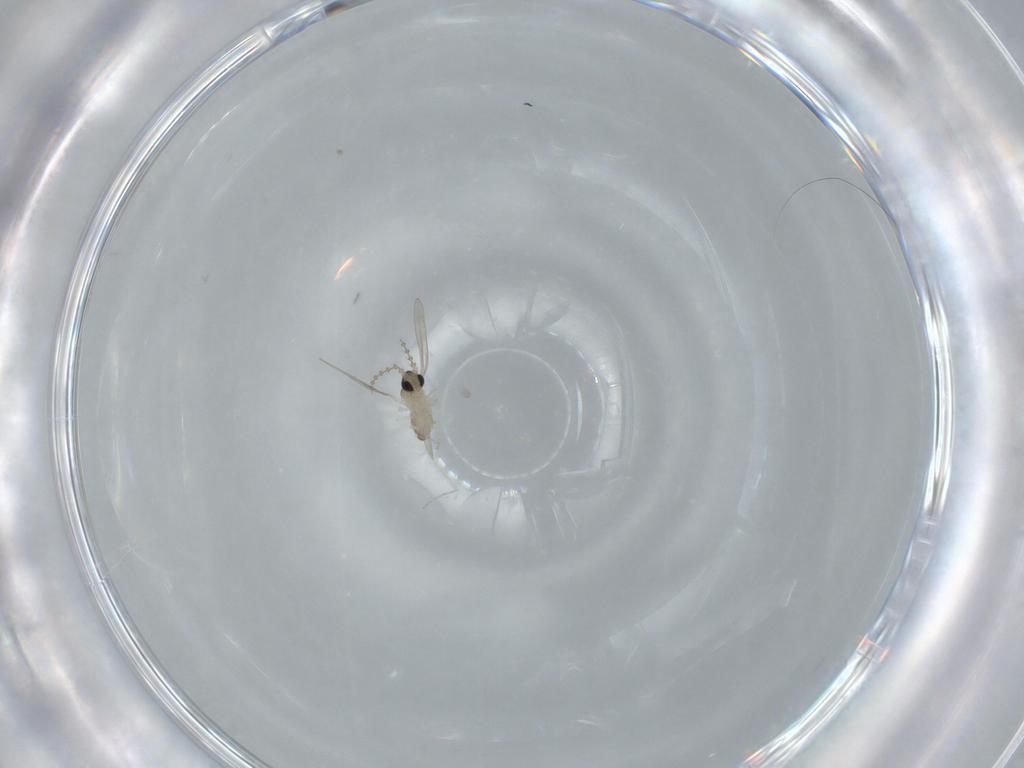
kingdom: Animalia
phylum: Arthropoda
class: Insecta
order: Diptera
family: Cecidomyiidae
